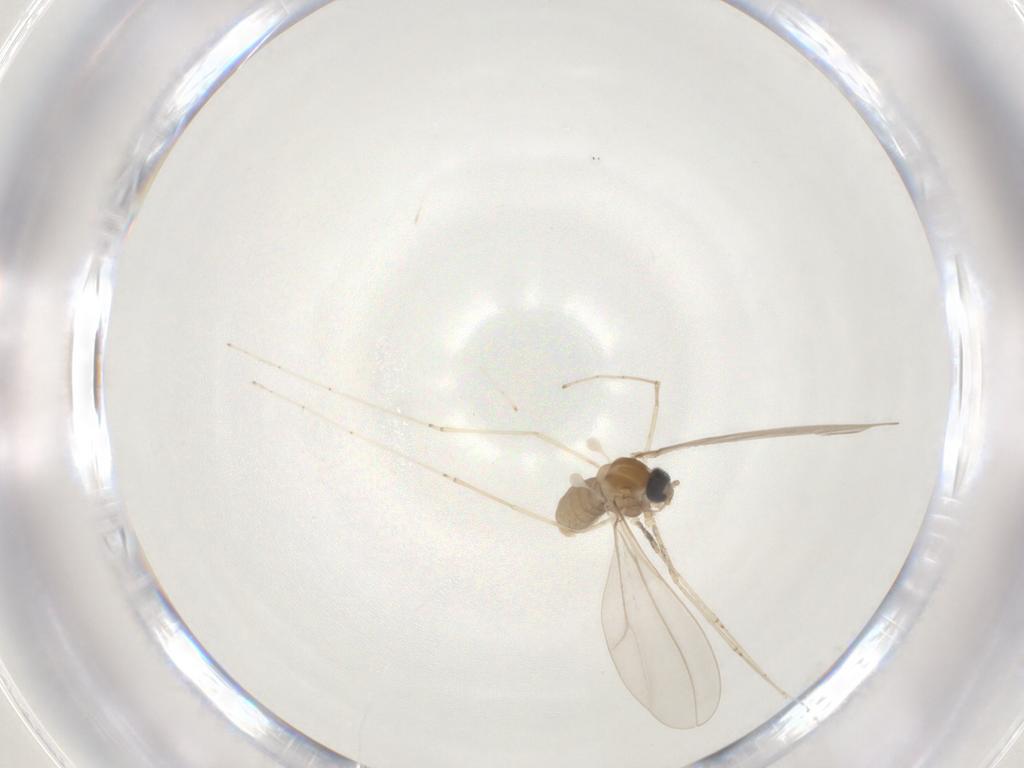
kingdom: Animalia
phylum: Arthropoda
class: Insecta
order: Diptera
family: Cecidomyiidae
